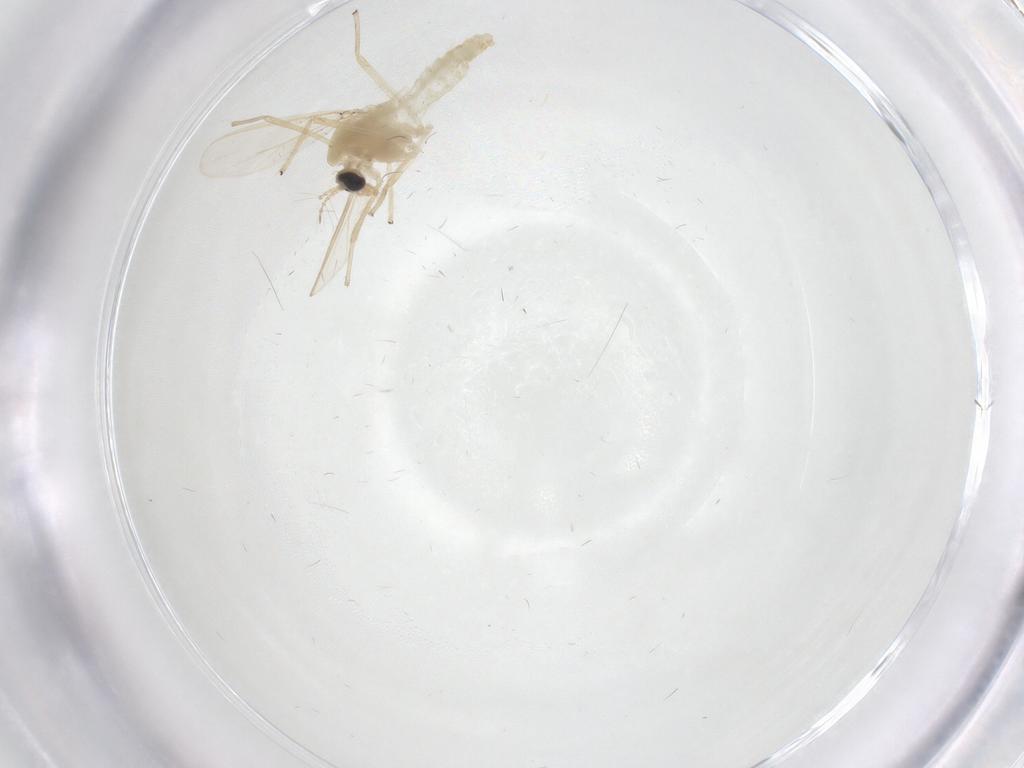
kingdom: Animalia
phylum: Arthropoda
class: Insecta
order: Diptera
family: Chironomidae
